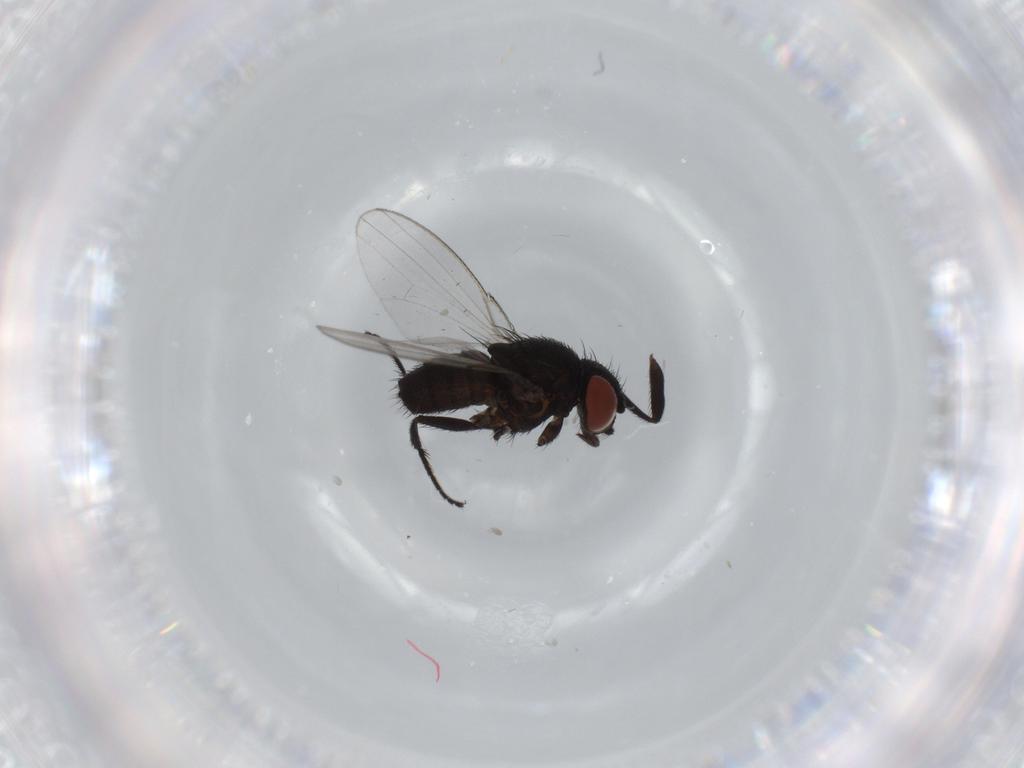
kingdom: Animalia
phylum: Arthropoda
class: Insecta
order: Diptera
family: Milichiidae
